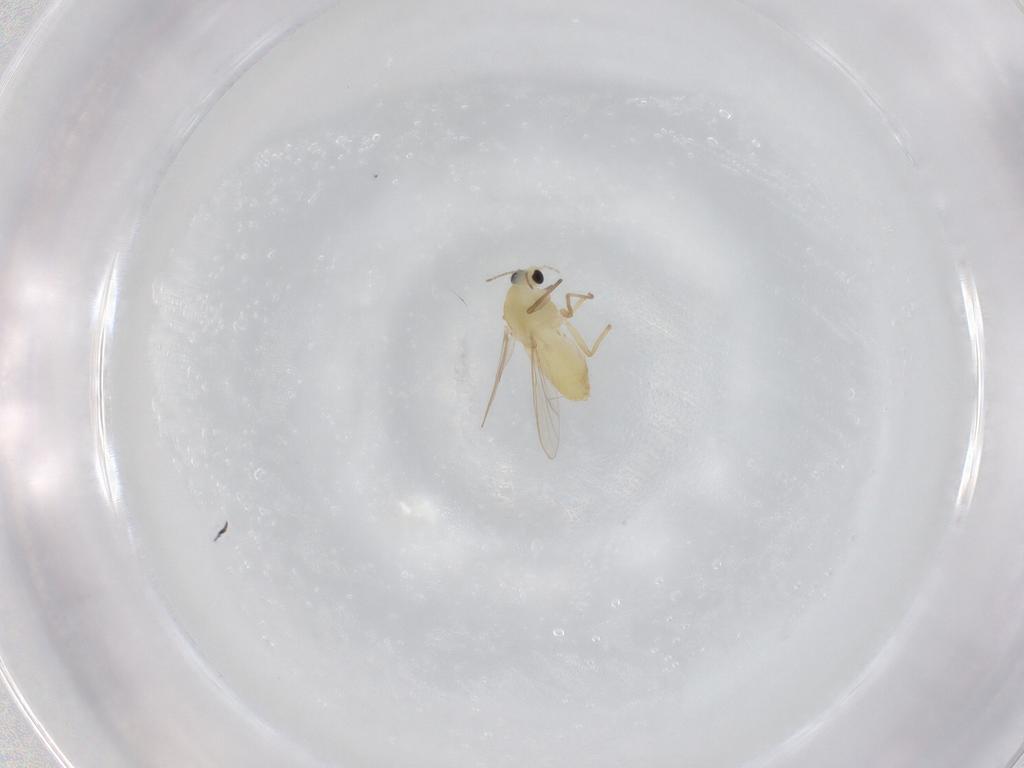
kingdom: Animalia
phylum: Arthropoda
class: Insecta
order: Diptera
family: Chironomidae
